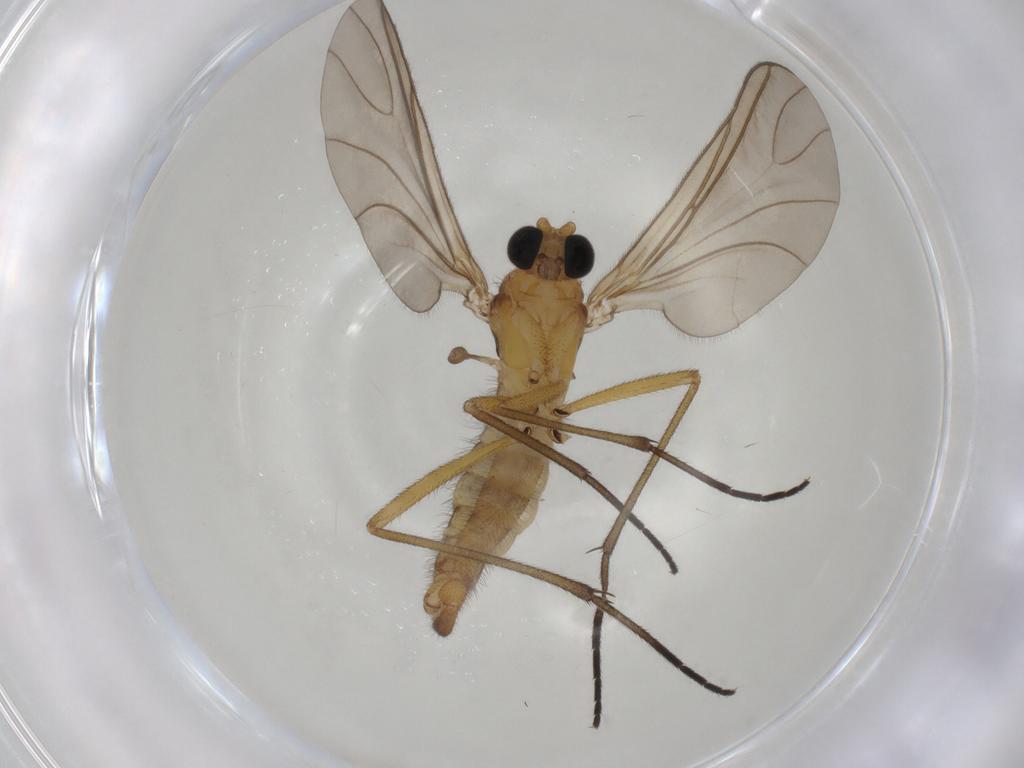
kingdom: Animalia
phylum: Arthropoda
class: Insecta
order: Diptera
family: Sciaridae
